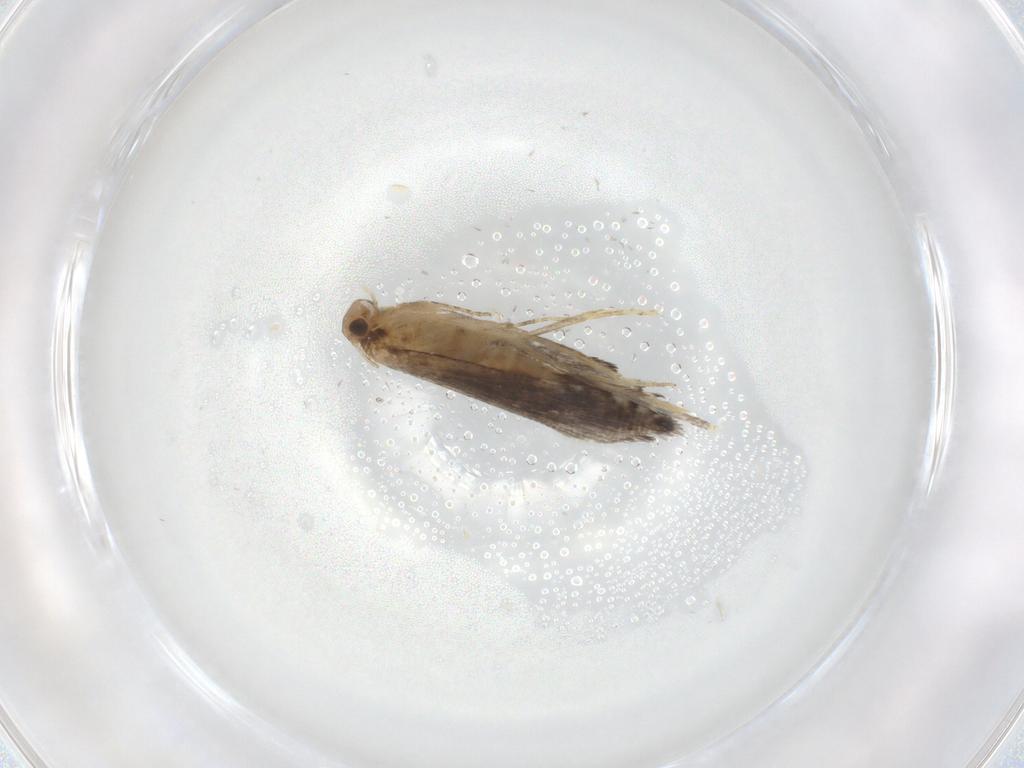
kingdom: Animalia
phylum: Arthropoda
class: Insecta
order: Lepidoptera
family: Glyphipterigidae
